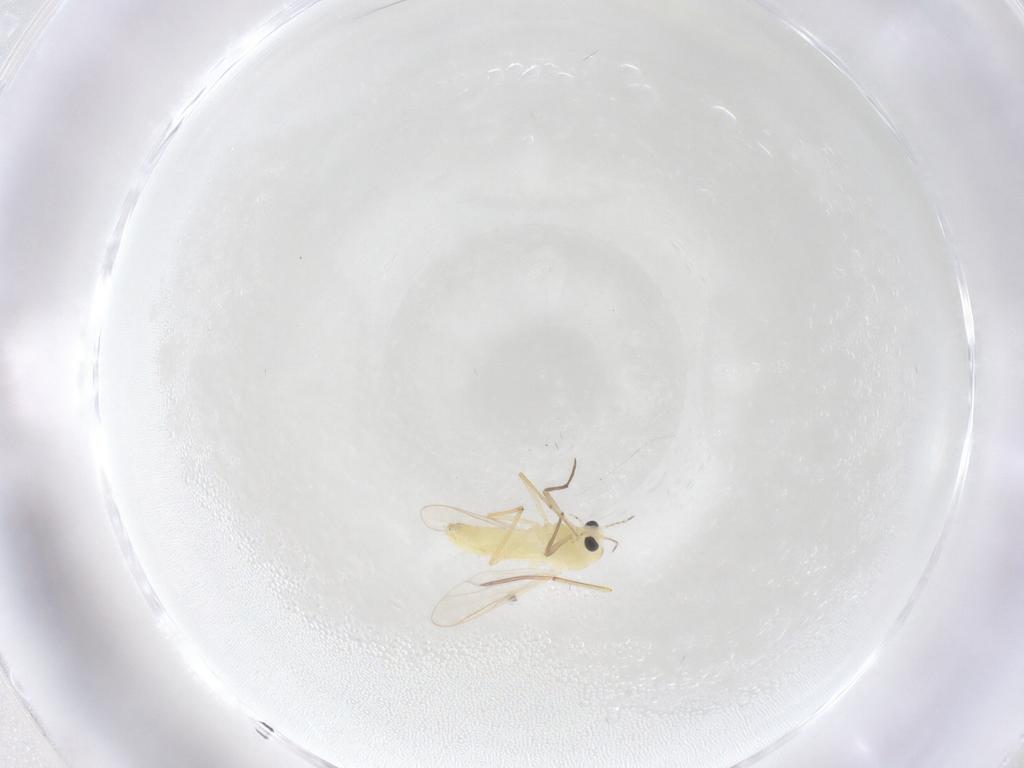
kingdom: Animalia
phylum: Arthropoda
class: Insecta
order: Diptera
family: Chironomidae
